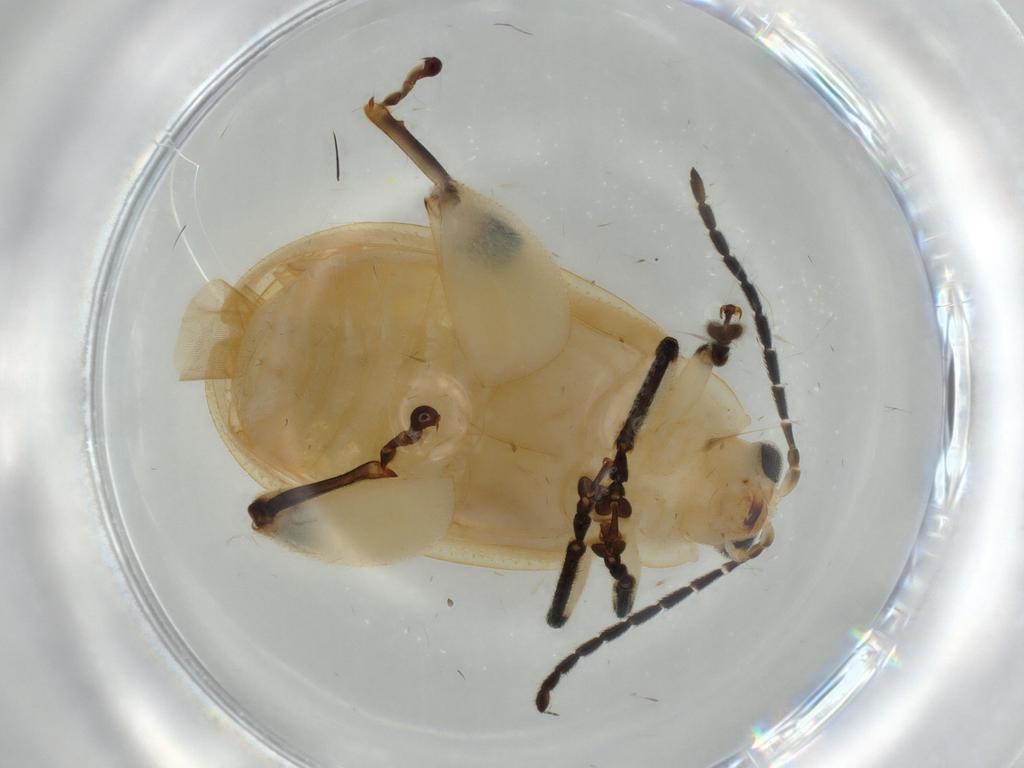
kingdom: Animalia
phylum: Arthropoda
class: Insecta
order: Coleoptera
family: Chrysomelidae
